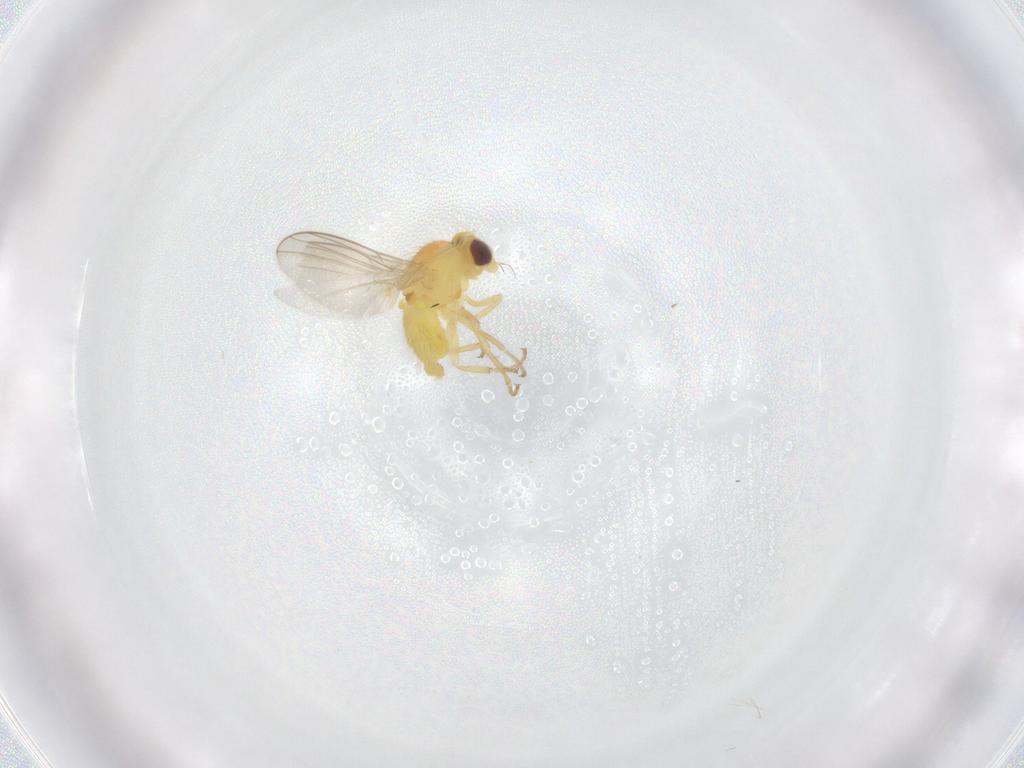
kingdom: Animalia
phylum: Arthropoda
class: Insecta
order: Diptera
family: Agromyzidae
